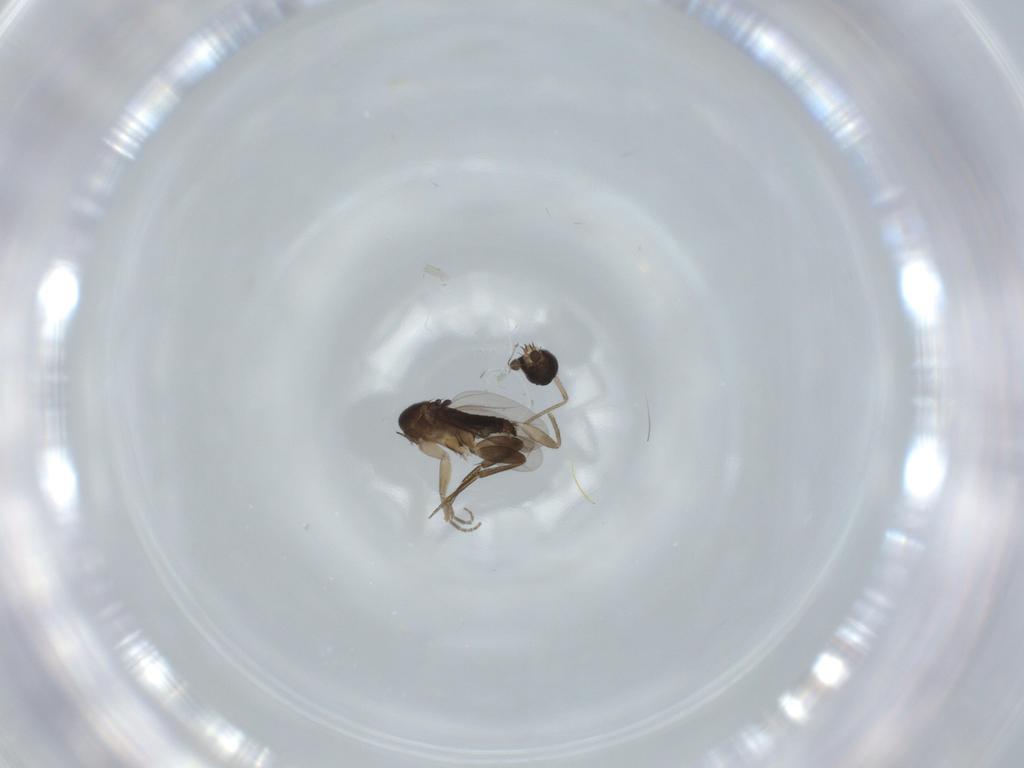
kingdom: Animalia
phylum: Arthropoda
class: Insecta
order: Diptera
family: Phoridae
